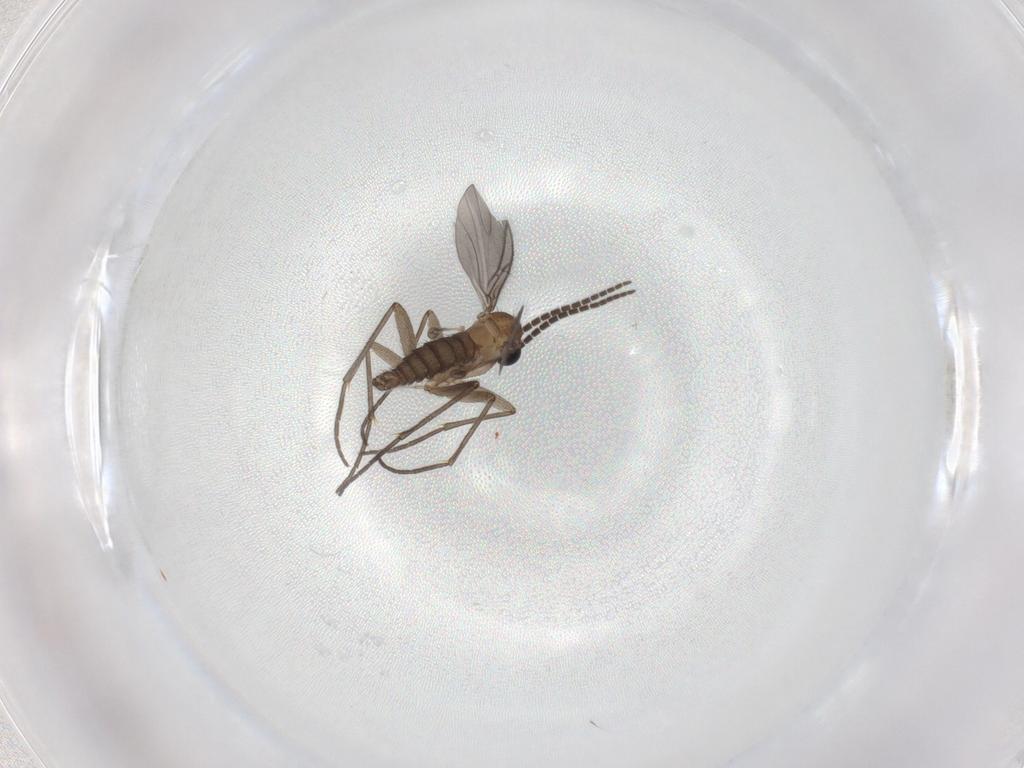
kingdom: Animalia
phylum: Arthropoda
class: Insecta
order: Diptera
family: Sciaridae
